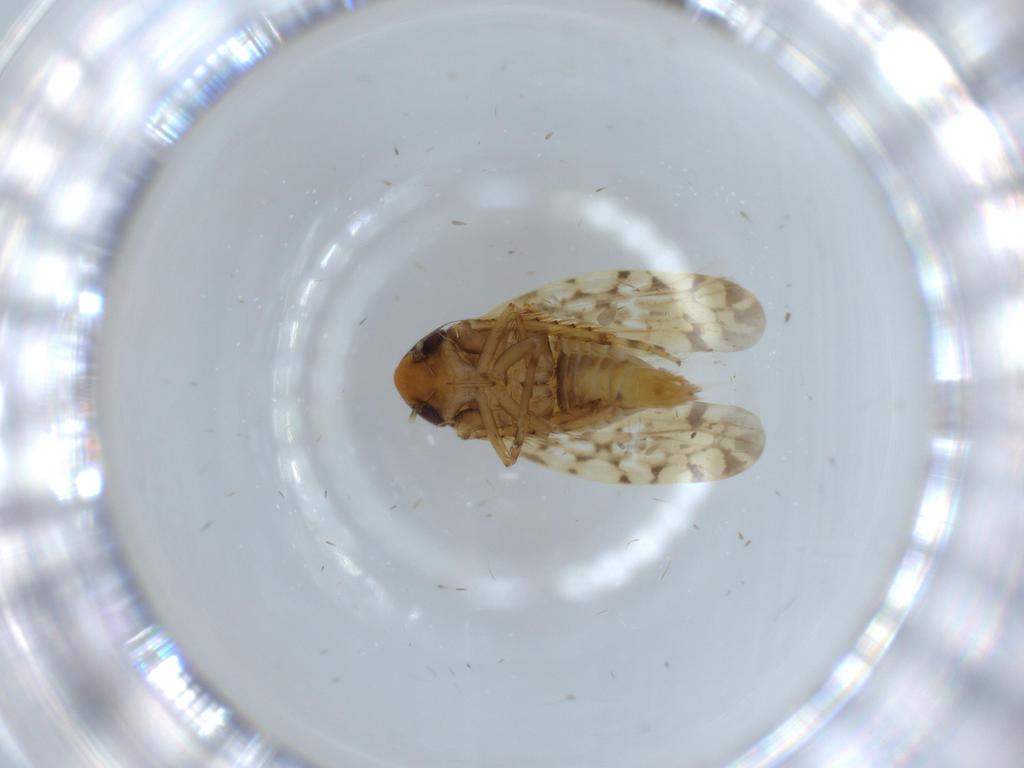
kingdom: Animalia
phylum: Arthropoda
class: Insecta
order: Hemiptera
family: Cicadellidae
